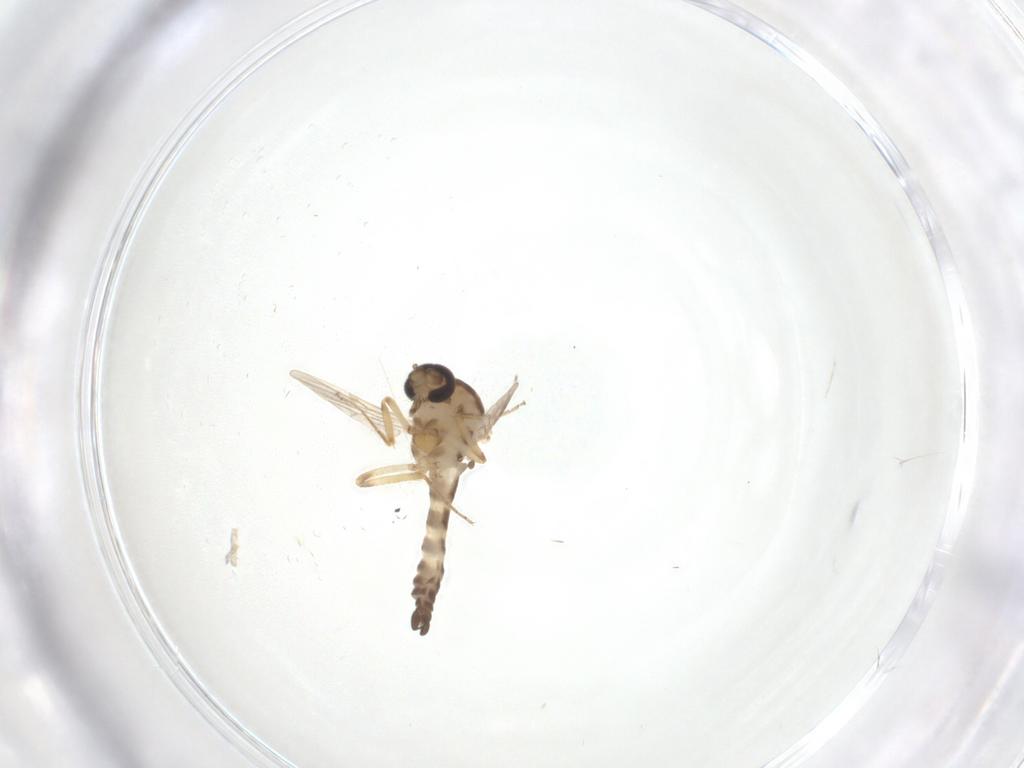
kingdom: Animalia
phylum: Arthropoda
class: Insecta
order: Diptera
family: Ceratopogonidae
